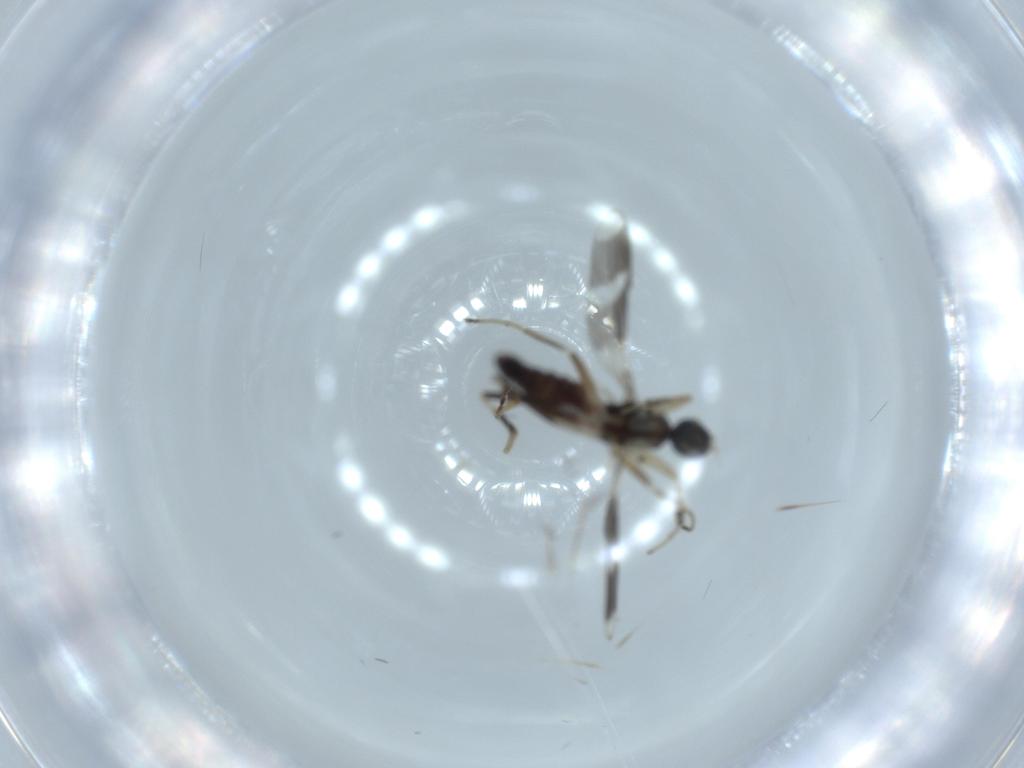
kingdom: Animalia
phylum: Arthropoda
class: Insecta
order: Diptera
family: Hybotidae
